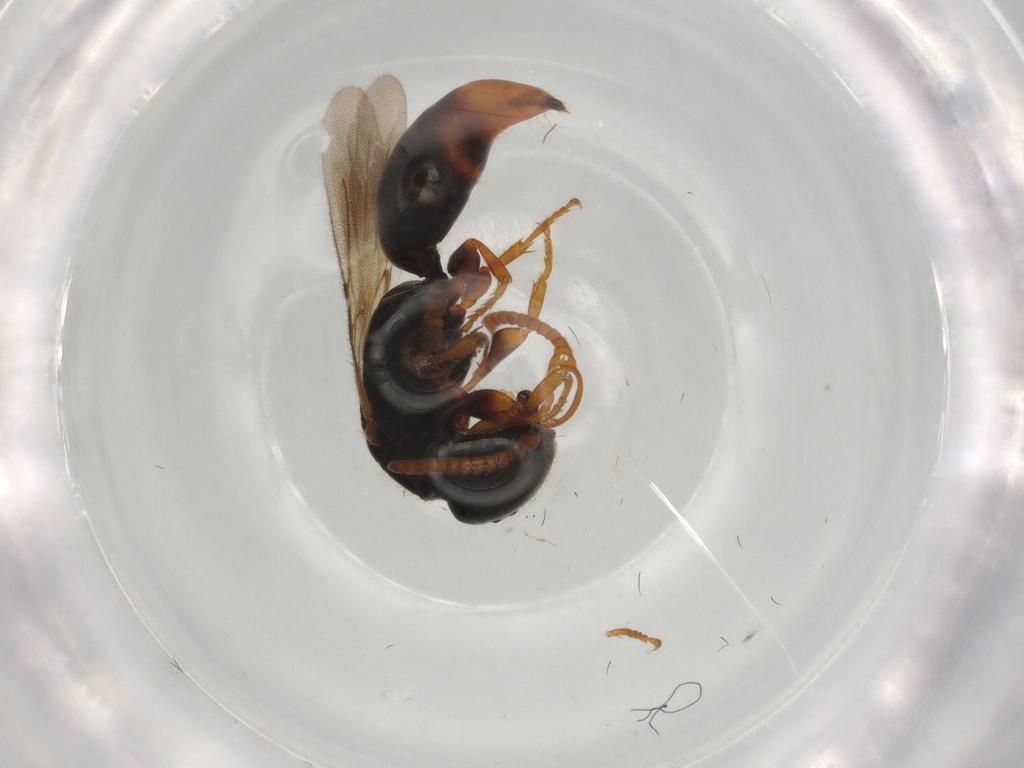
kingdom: Animalia
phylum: Arthropoda
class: Insecta
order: Hymenoptera
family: Bethylidae
